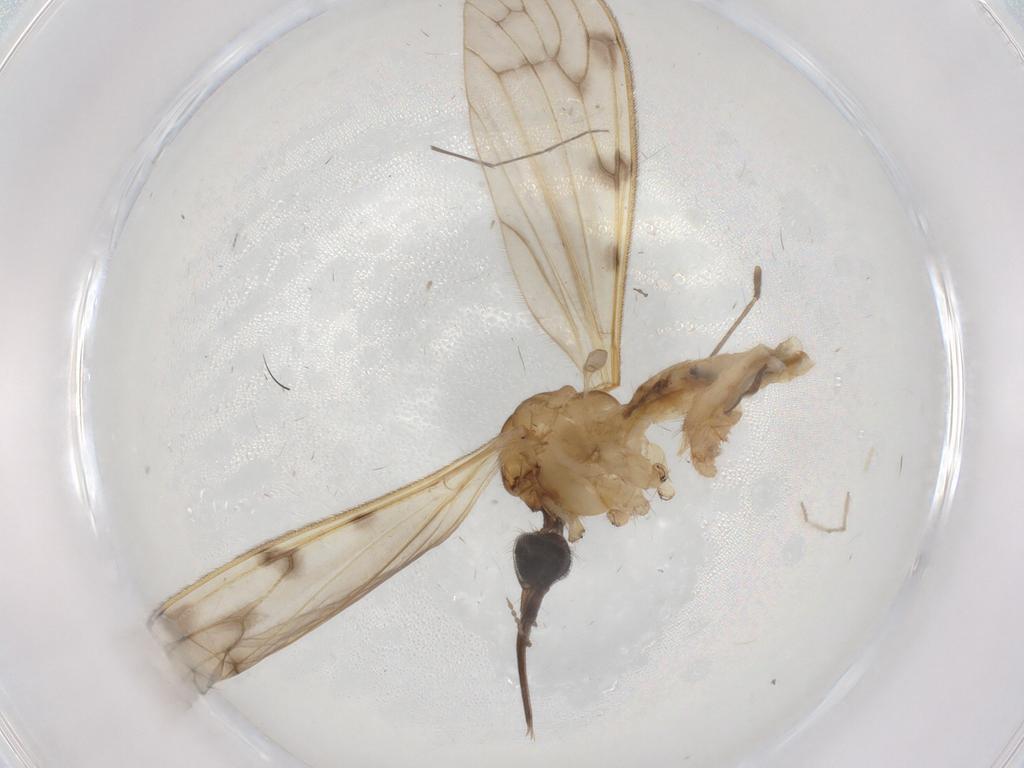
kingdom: Animalia
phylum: Arthropoda
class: Insecta
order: Diptera
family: Chironomidae
